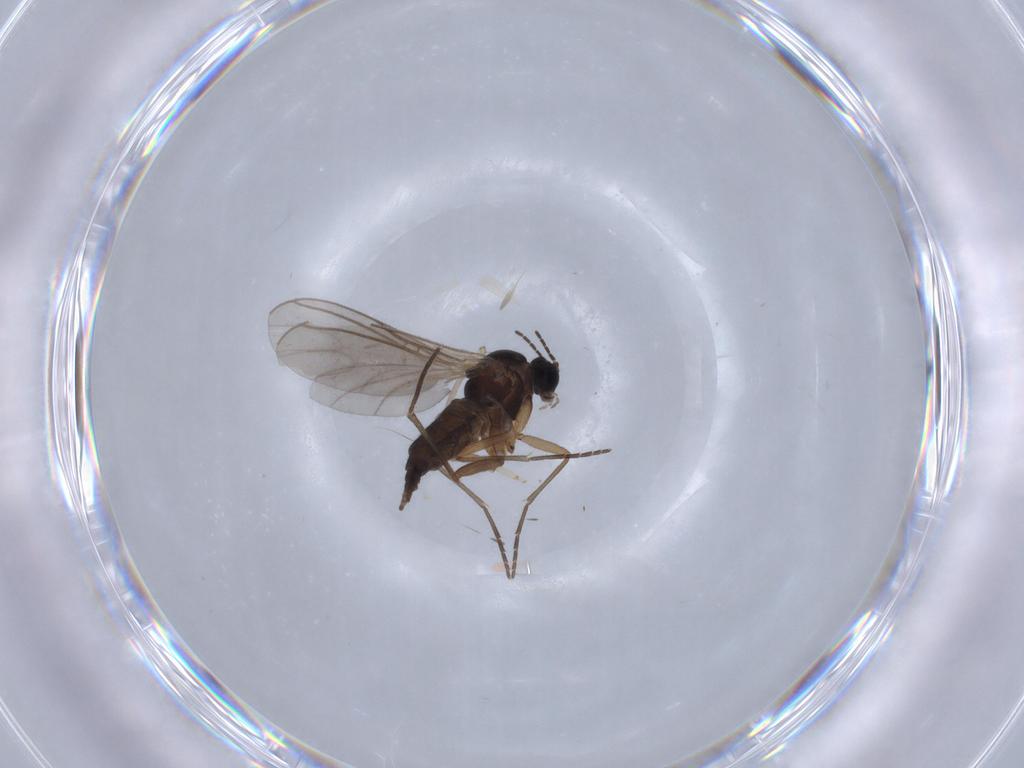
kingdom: Animalia
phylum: Arthropoda
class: Insecta
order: Diptera
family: Sciaridae
